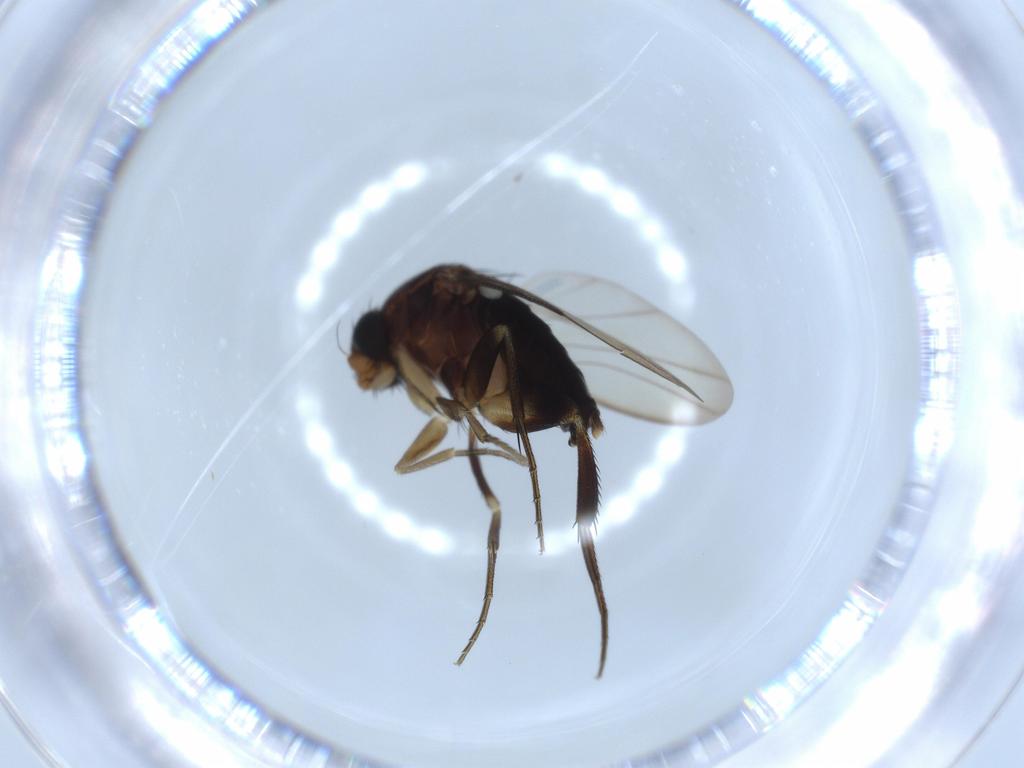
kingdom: Animalia
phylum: Arthropoda
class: Insecta
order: Diptera
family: Phoridae
